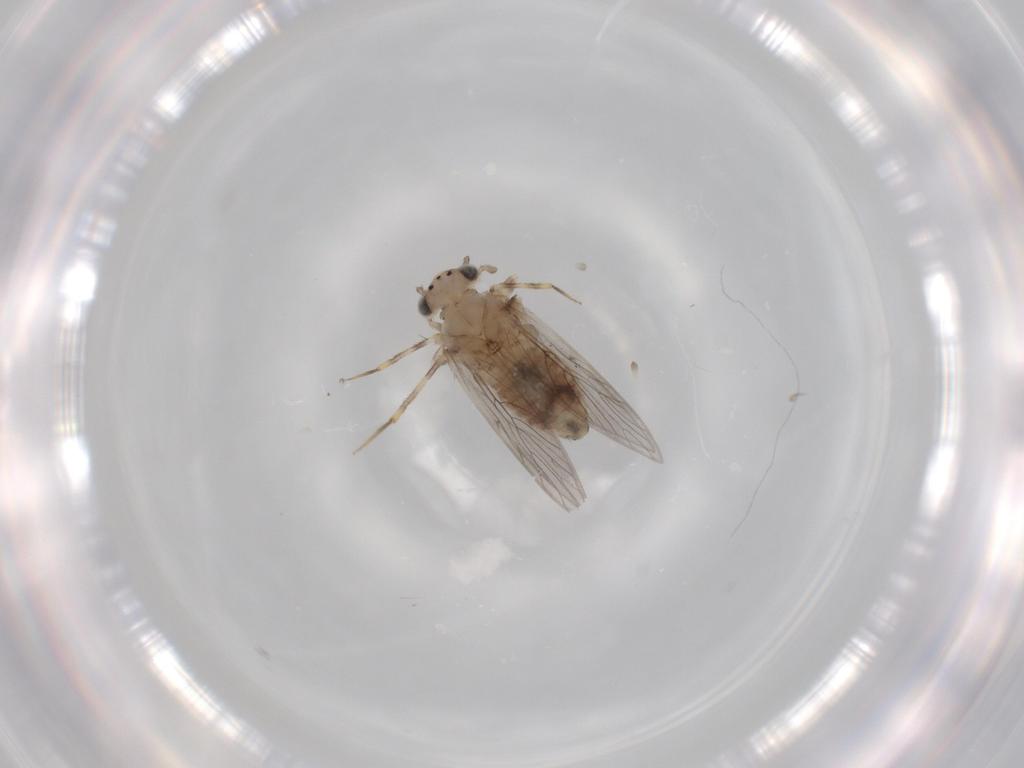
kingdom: Animalia
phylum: Arthropoda
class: Insecta
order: Psocodea
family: Lepidopsocidae
